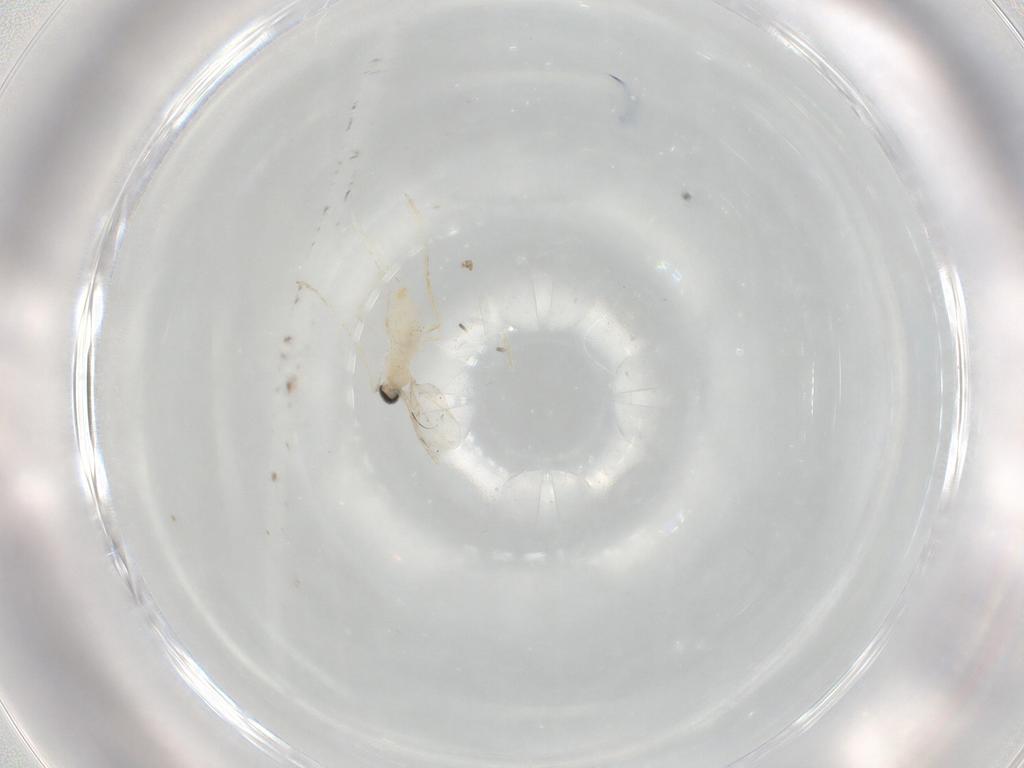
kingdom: Animalia
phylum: Arthropoda
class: Insecta
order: Diptera
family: Cecidomyiidae
